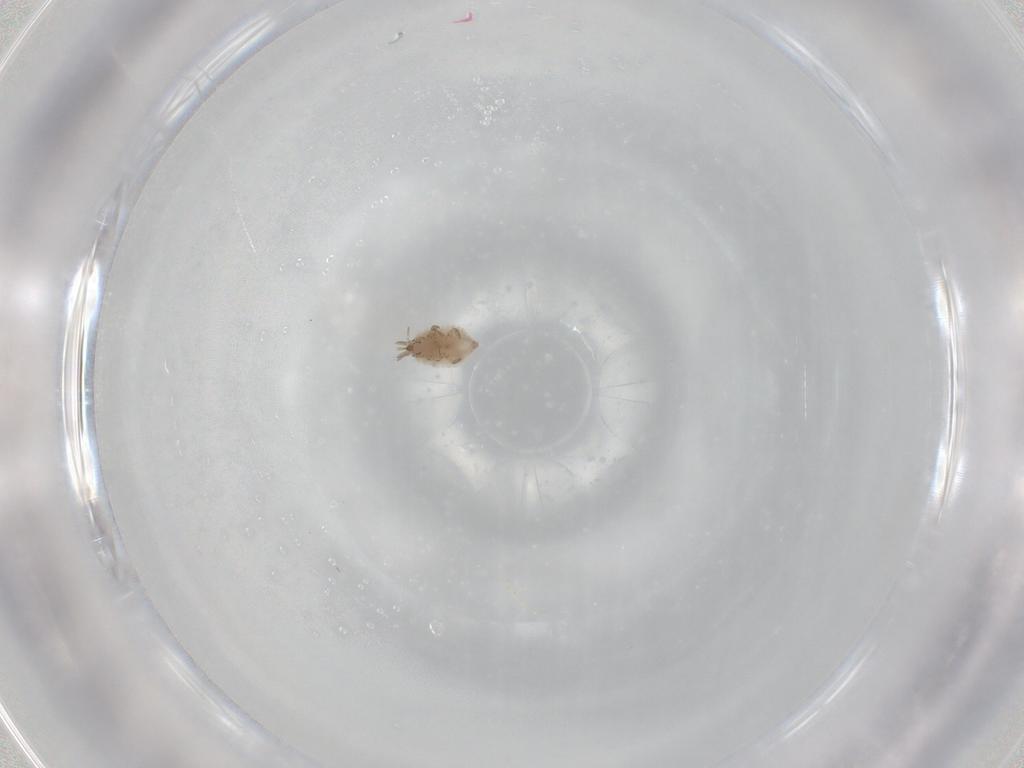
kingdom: Animalia
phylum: Arthropoda
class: Insecta
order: Neuroptera
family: Coniopterygidae
